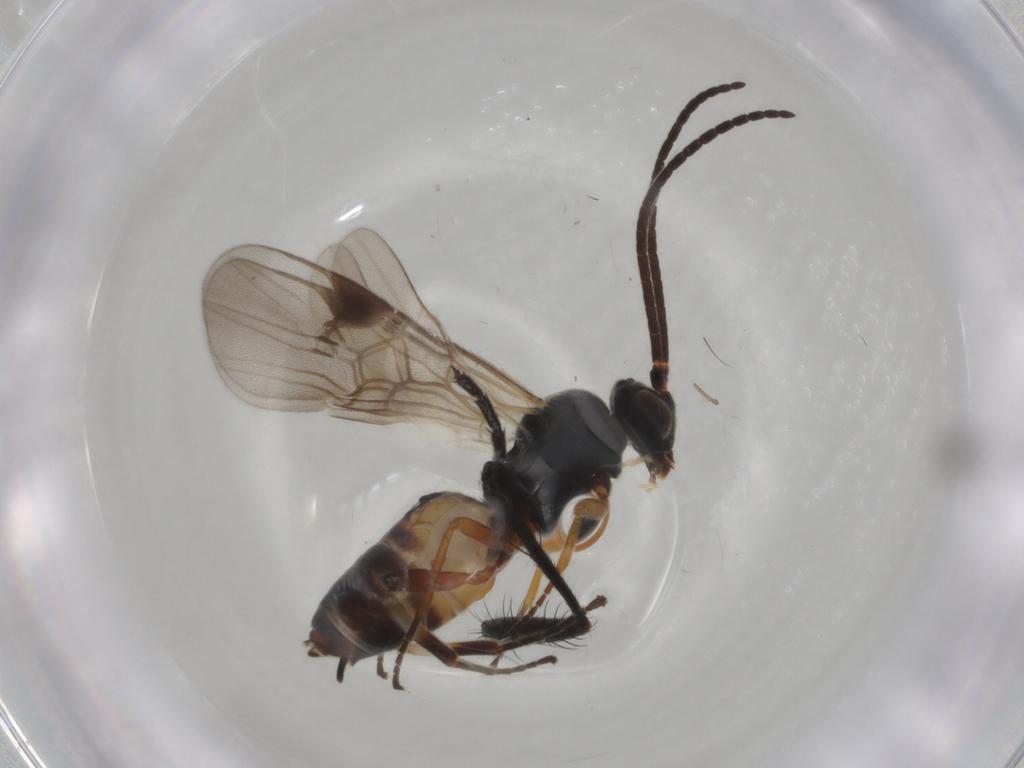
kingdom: Animalia
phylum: Arthropoda
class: Insecta
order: Hymenoptera
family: Braconidae
